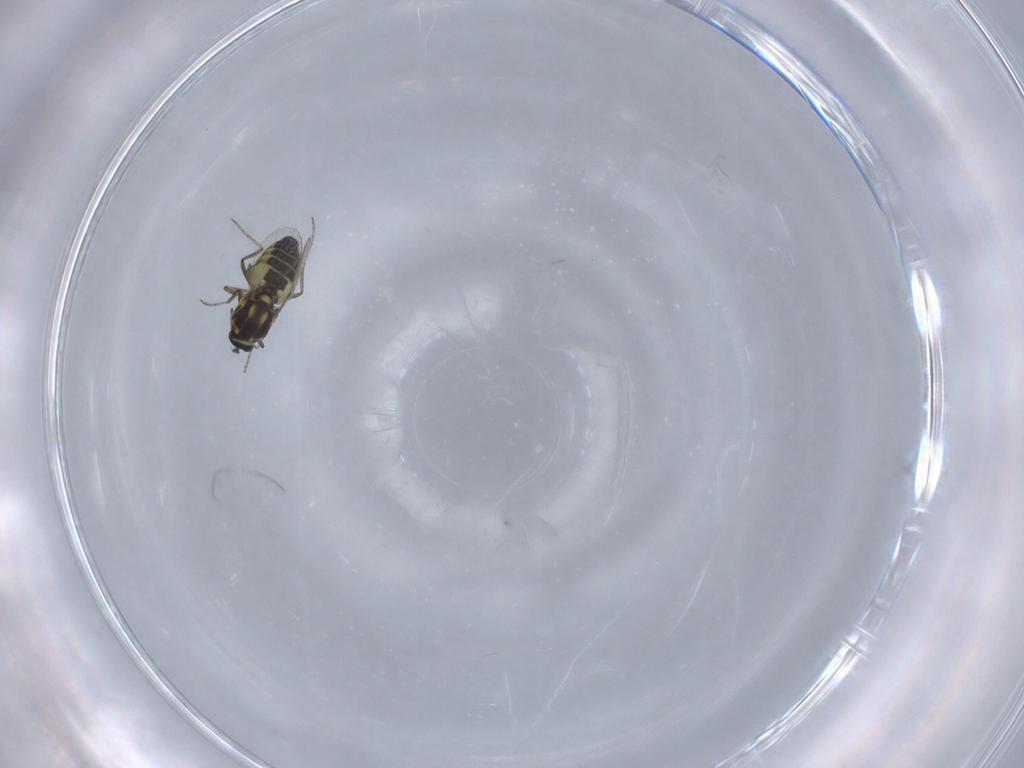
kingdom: Animalia
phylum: Arthropoda
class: Insecta
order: Diptera
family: Ceratopogonidae
